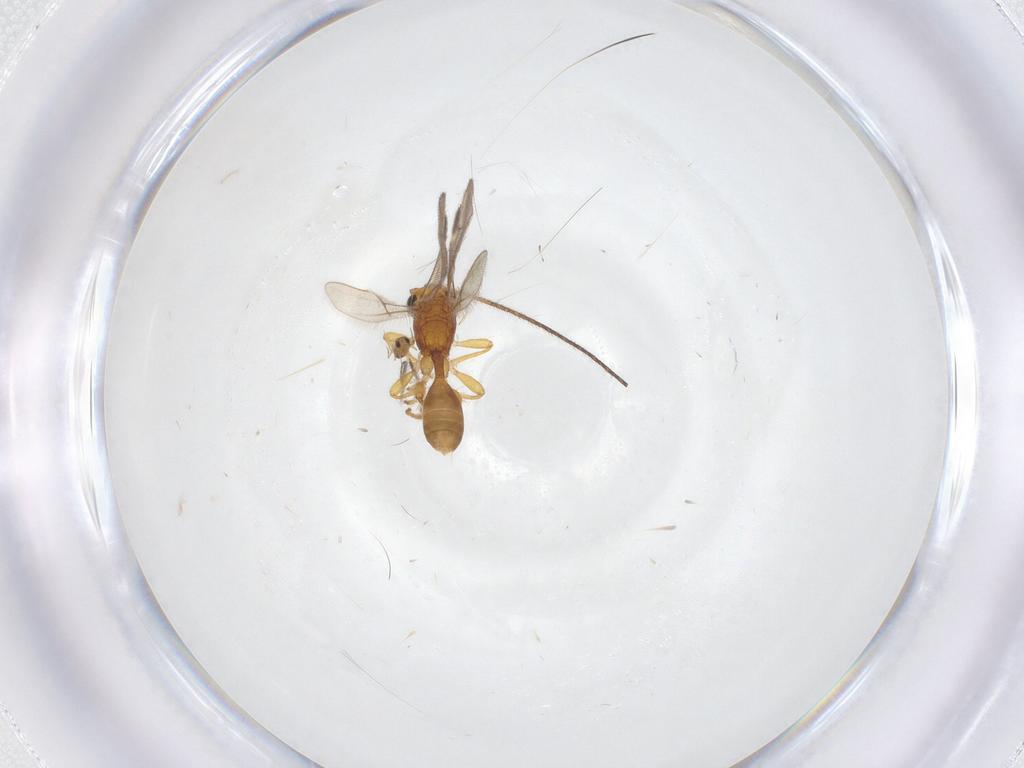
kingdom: Animalia
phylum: Arthropoda
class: Insecta
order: Hymenoptera
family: Braconidae
